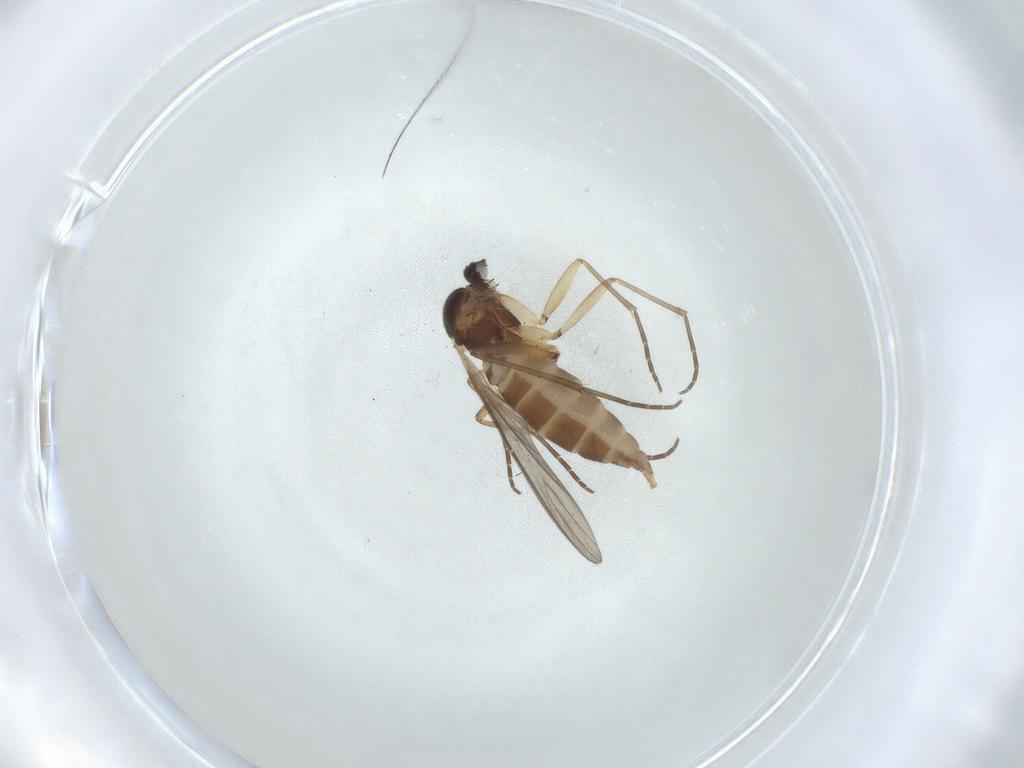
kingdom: Animalia
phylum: Arthropoda
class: Insecta
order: Diptera
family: Sciaridae
